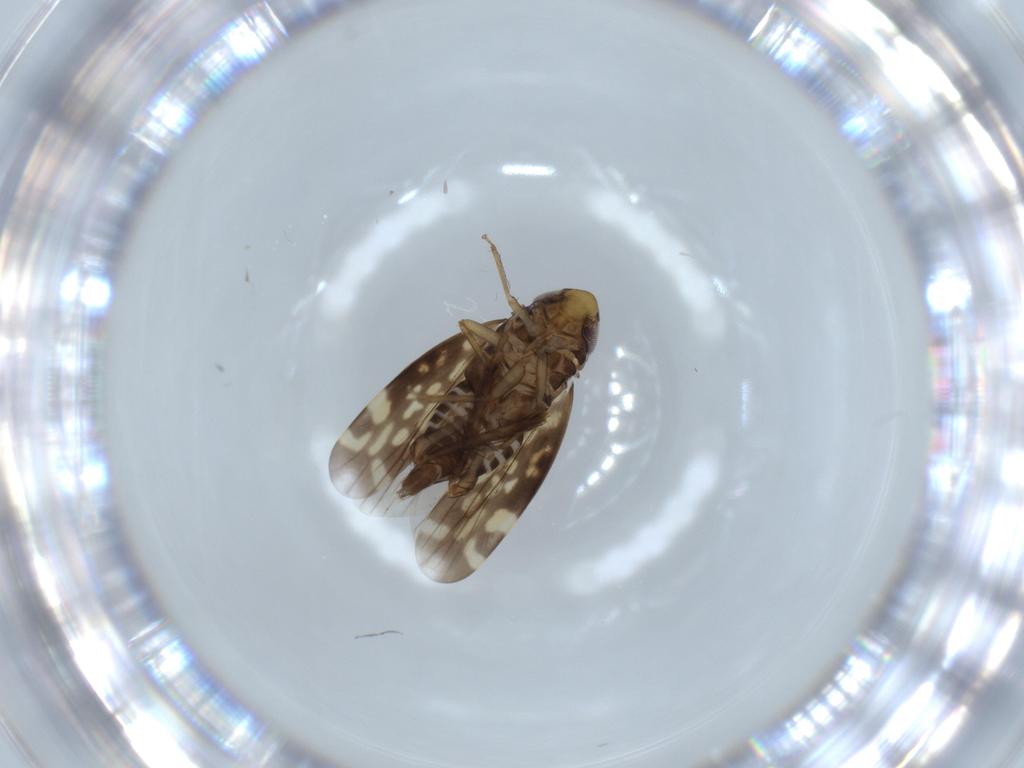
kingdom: Animalia
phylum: Arthropoda
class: Insecta
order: Hemiptera
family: Cicadellidae
